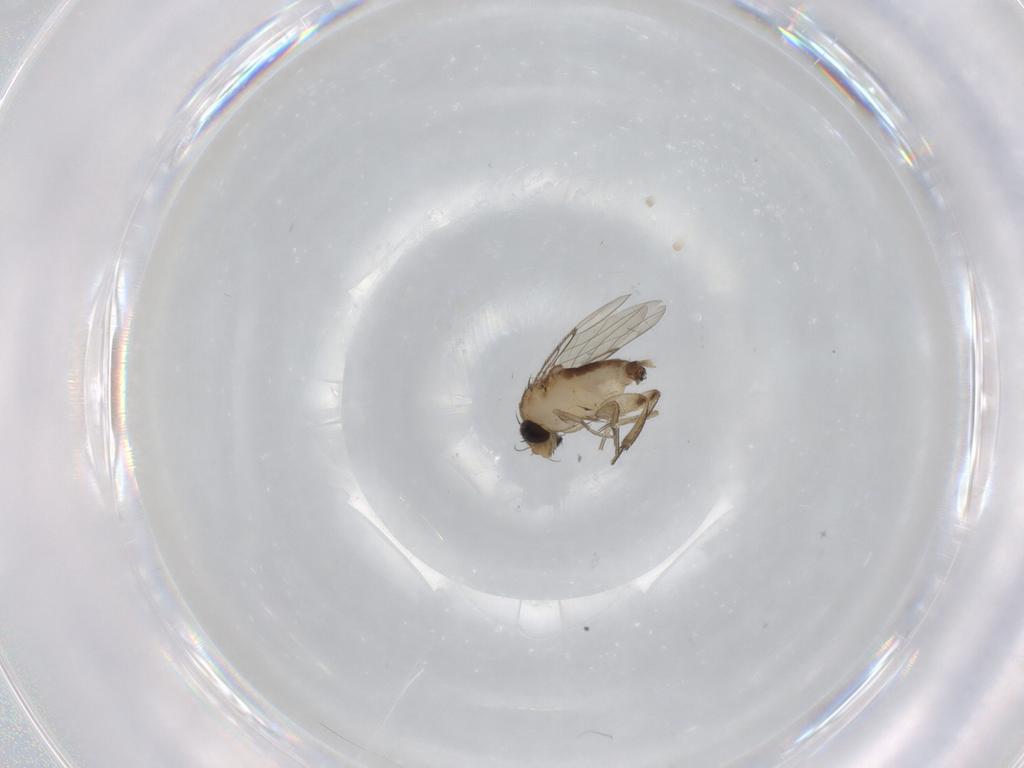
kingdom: Animalia
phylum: Arthropoda
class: Insecta
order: Diptera
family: Phoridae
